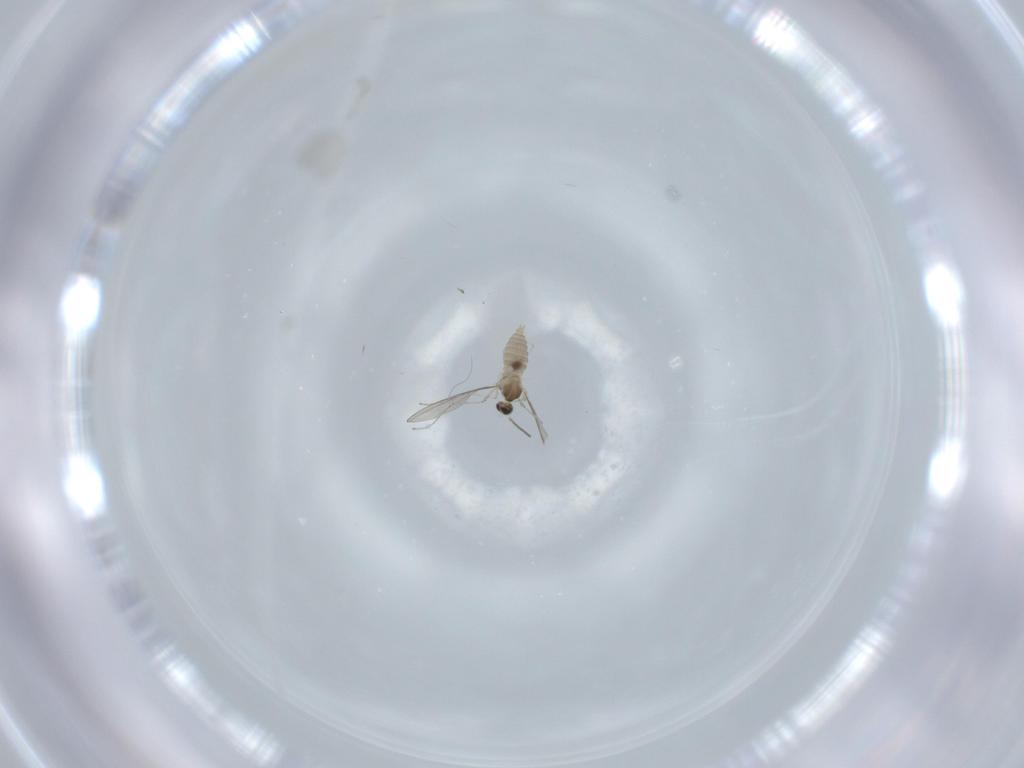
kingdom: Animalia
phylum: Arthropoda
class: Insecta
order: Diptera
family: Cecidomyiidae
